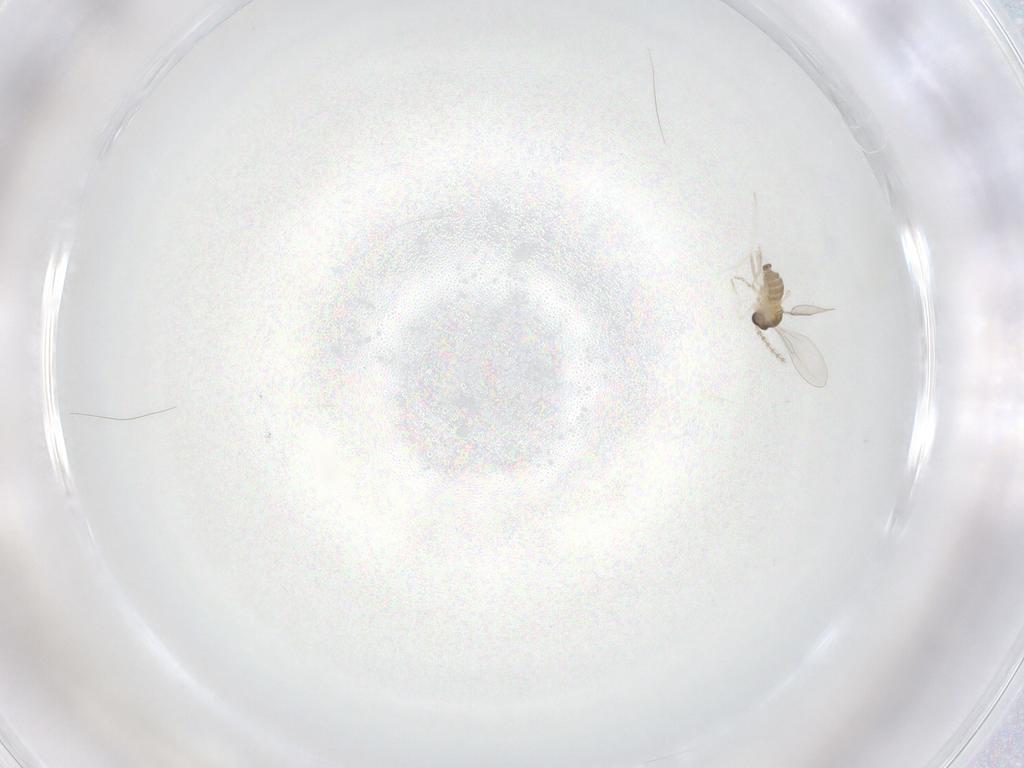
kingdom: Animalia
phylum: Arthropoda
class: Insecta
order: Diptera
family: Cecidomyiidae
